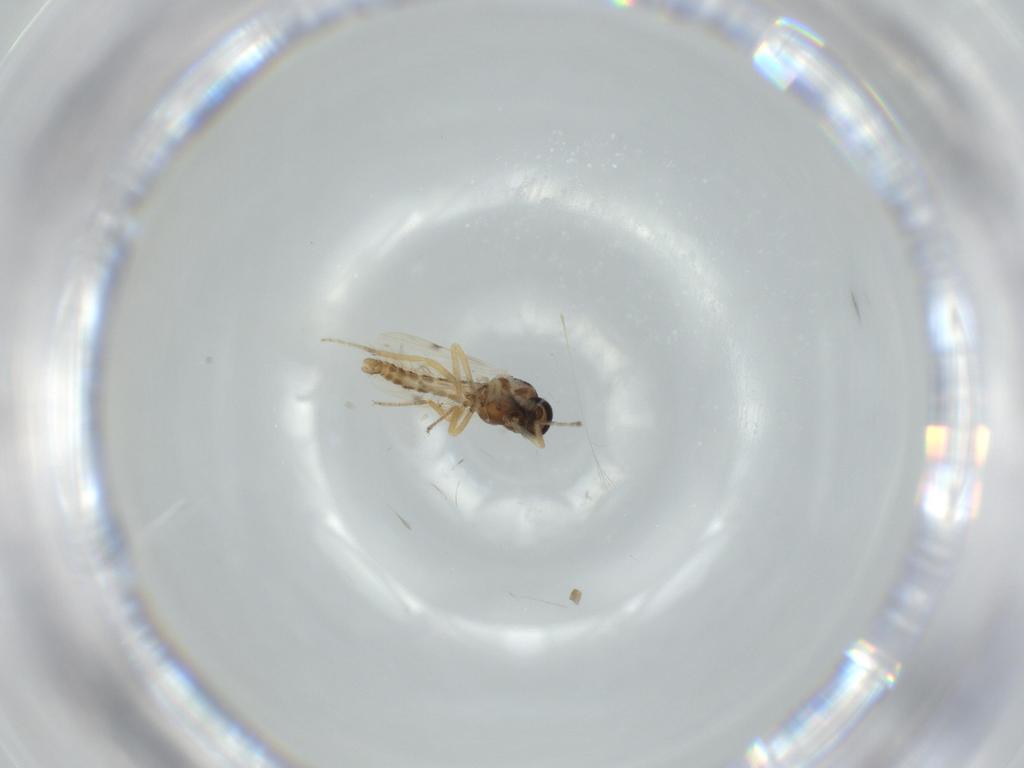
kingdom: Animalia
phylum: Arthropoda
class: Insecta
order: Diptera
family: Ceratopogonidae
